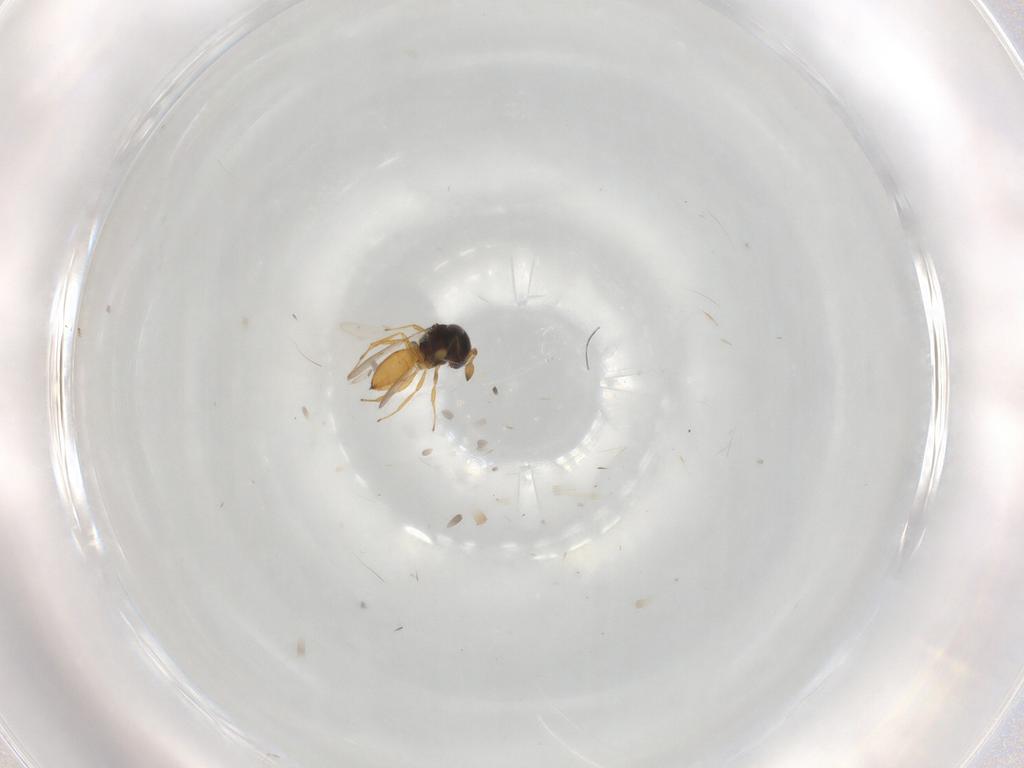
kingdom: Animalia
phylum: Arthropoda
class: Insecta
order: Hymenoptera
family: Scelionidae
